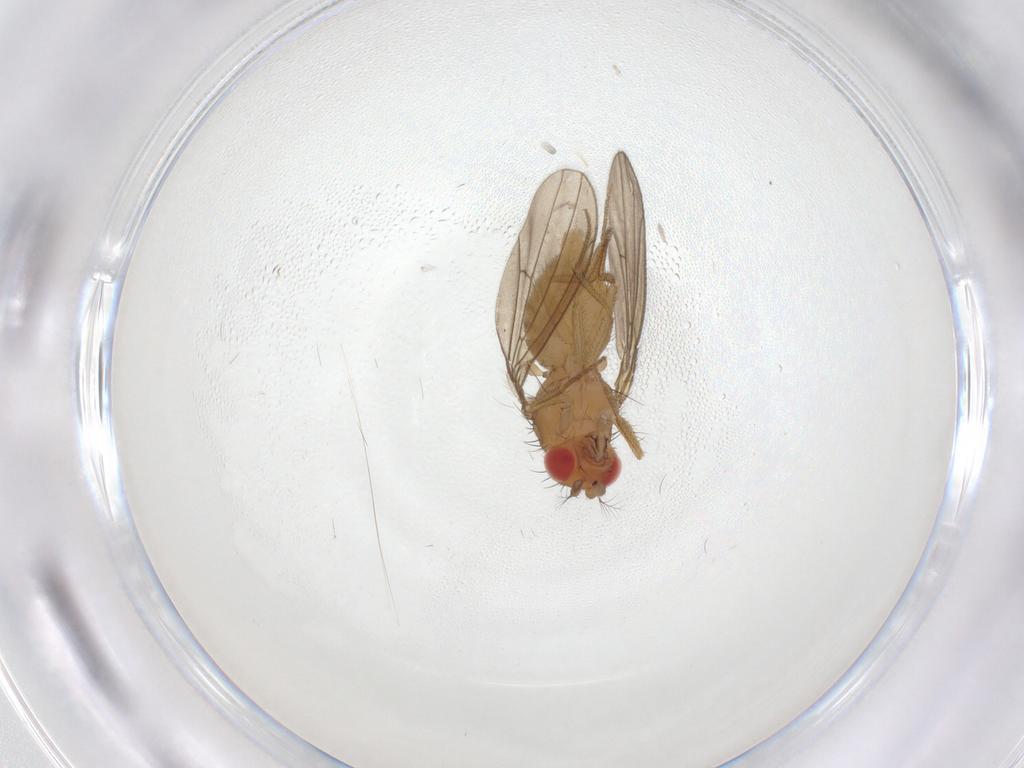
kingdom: Animalia
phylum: Arthropoda
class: Insecta
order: Diptera
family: Drosophilidae
